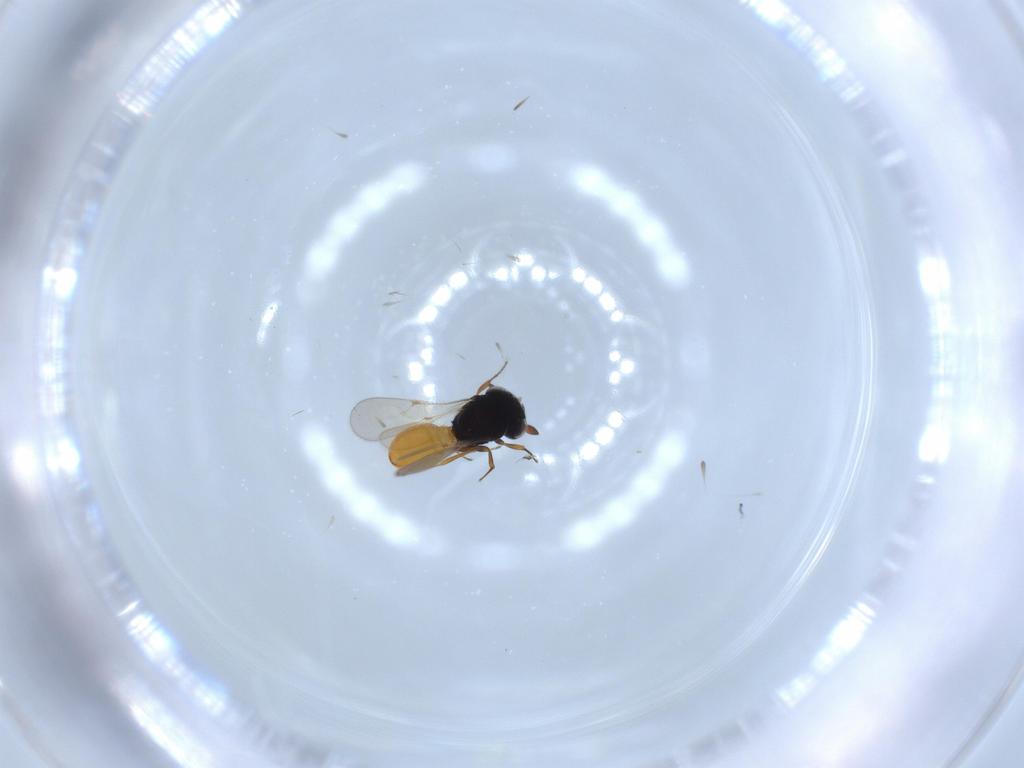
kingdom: Animalia
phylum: Arthropoda
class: Insecta
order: Hymenoptera
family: Scelionidae
